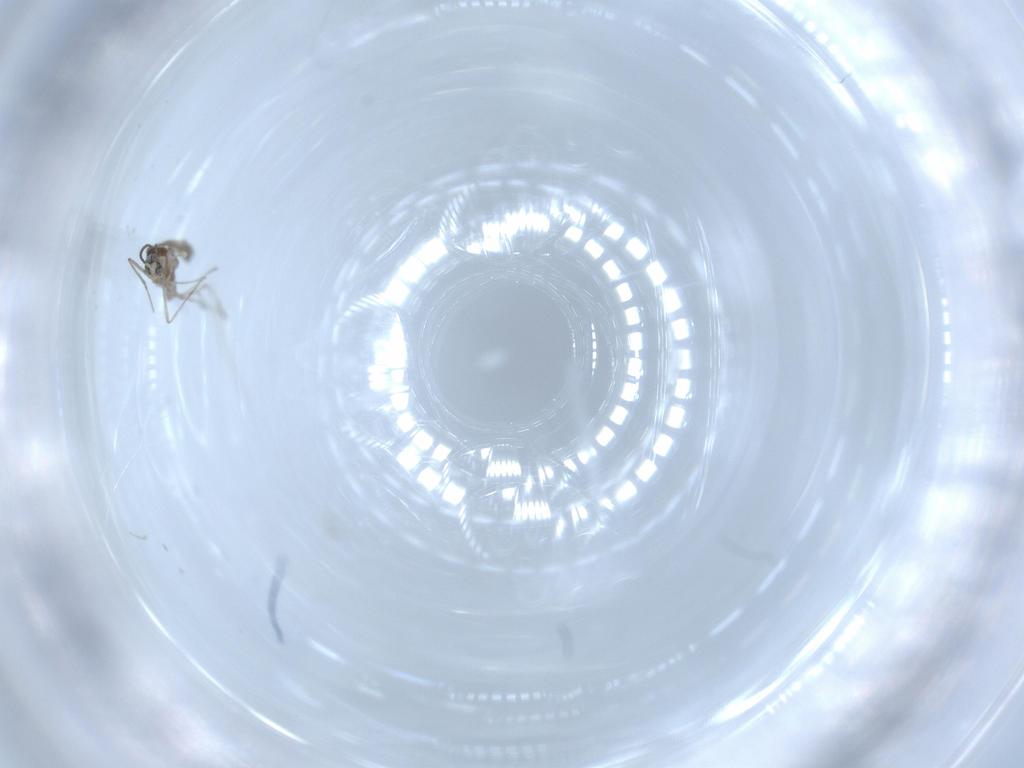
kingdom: Animalia
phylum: Arthropoda
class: Insecta
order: Diptera
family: Cecidomyiidae
